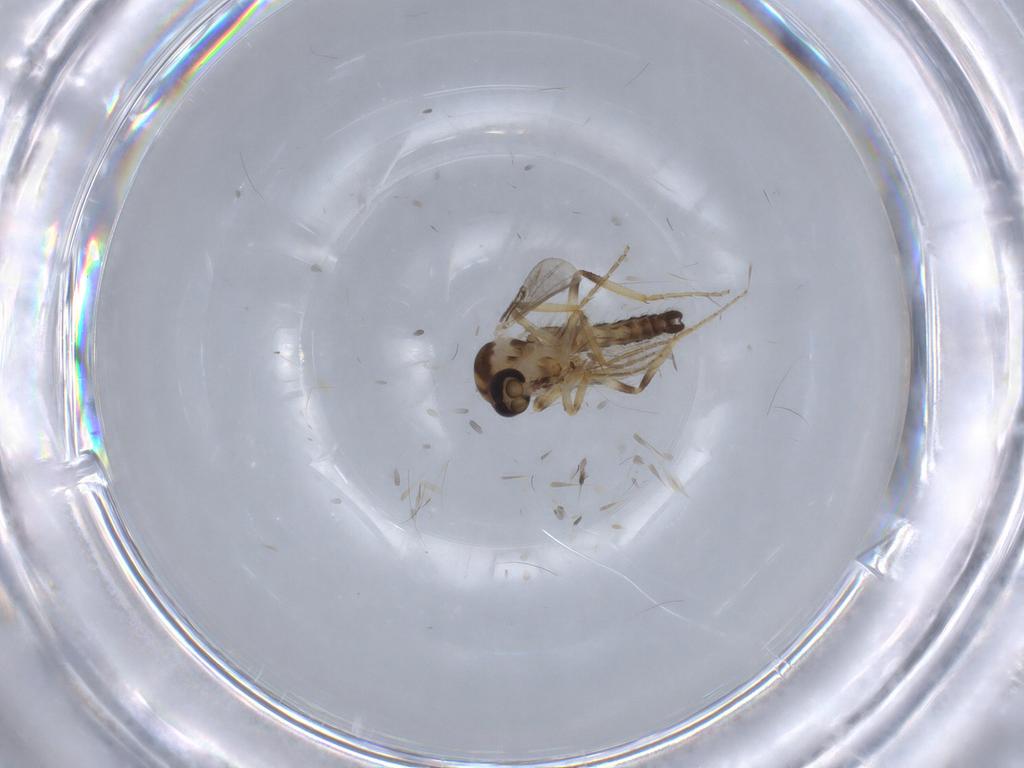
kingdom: Animalia
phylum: Arthropoda
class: Insecta
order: Diptera
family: Ceratopogonidae
